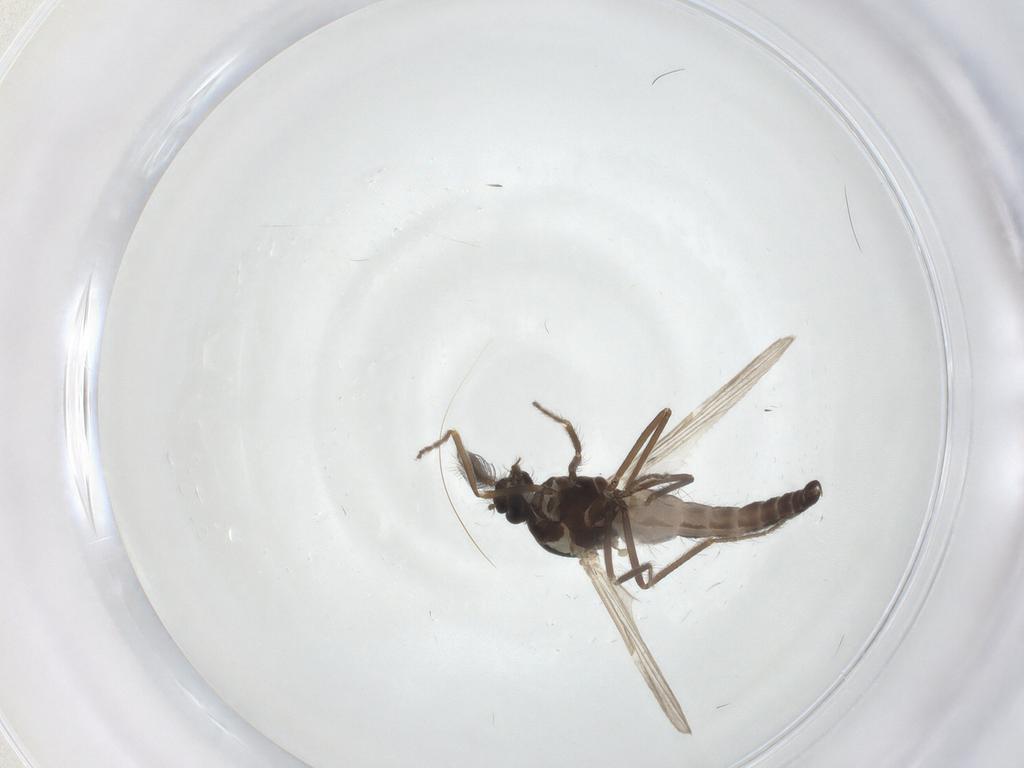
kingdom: Animalia
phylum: Arthropoda
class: Insecta
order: Diptera
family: Ceratopogonidae
